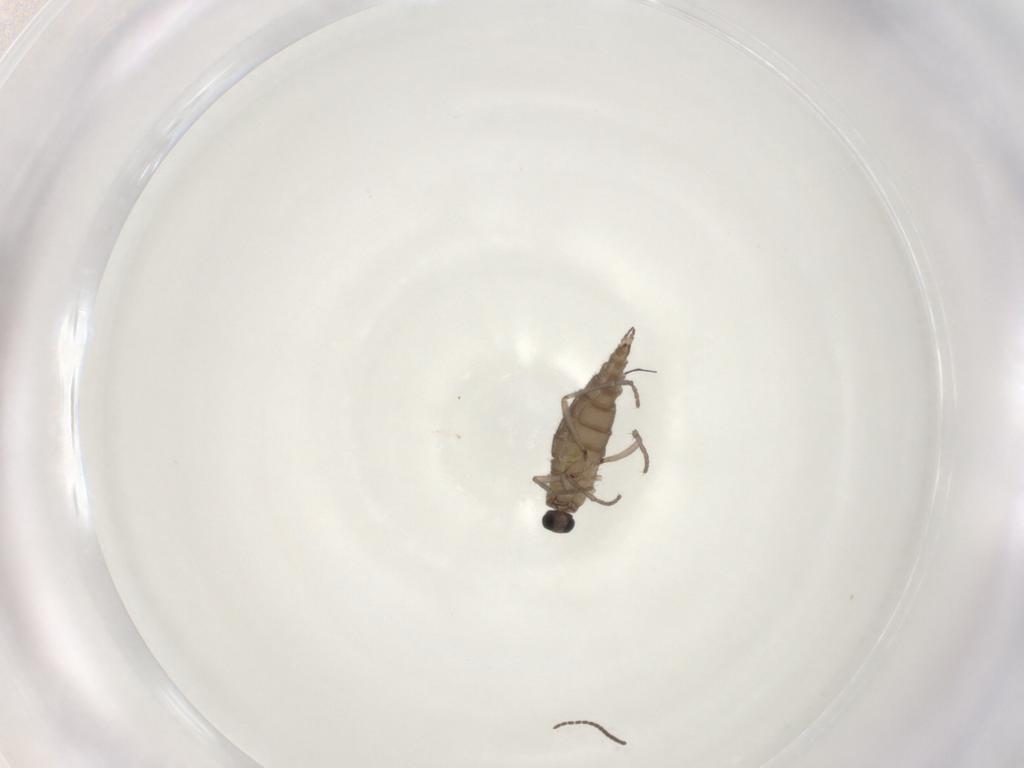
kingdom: Animalia
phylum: Arthropoda
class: Insecta
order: Diptera
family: Sciaridae
